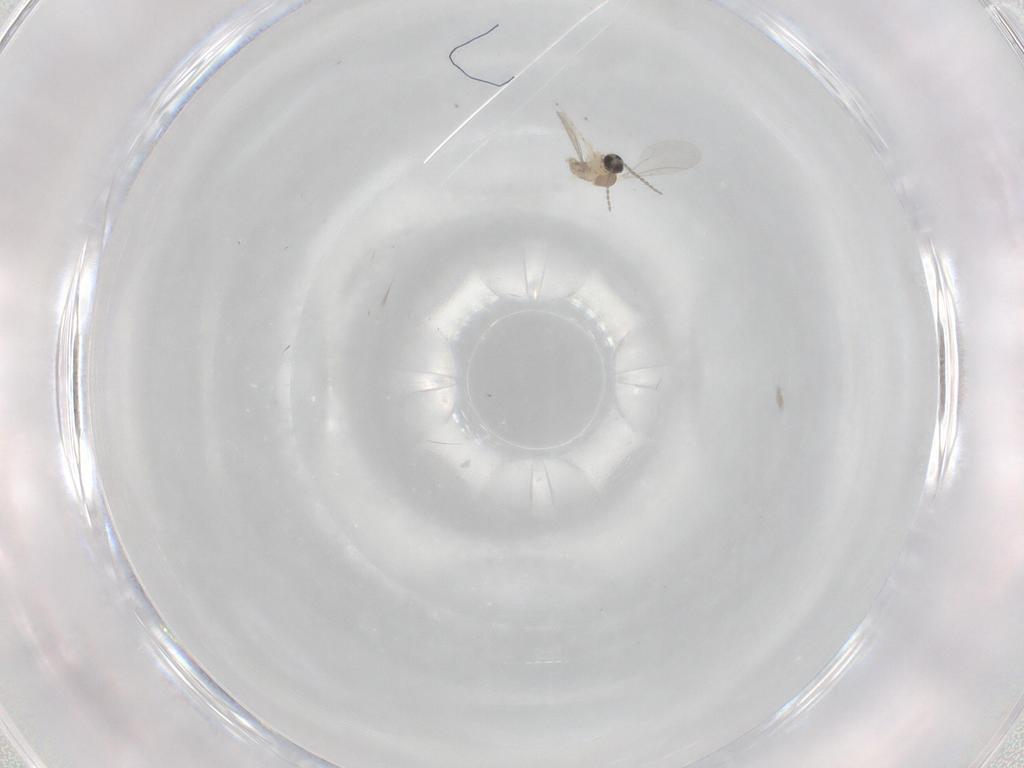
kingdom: Animalia
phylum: Arthropoda
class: Insecta
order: Diptera
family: Cecidomyiidae
